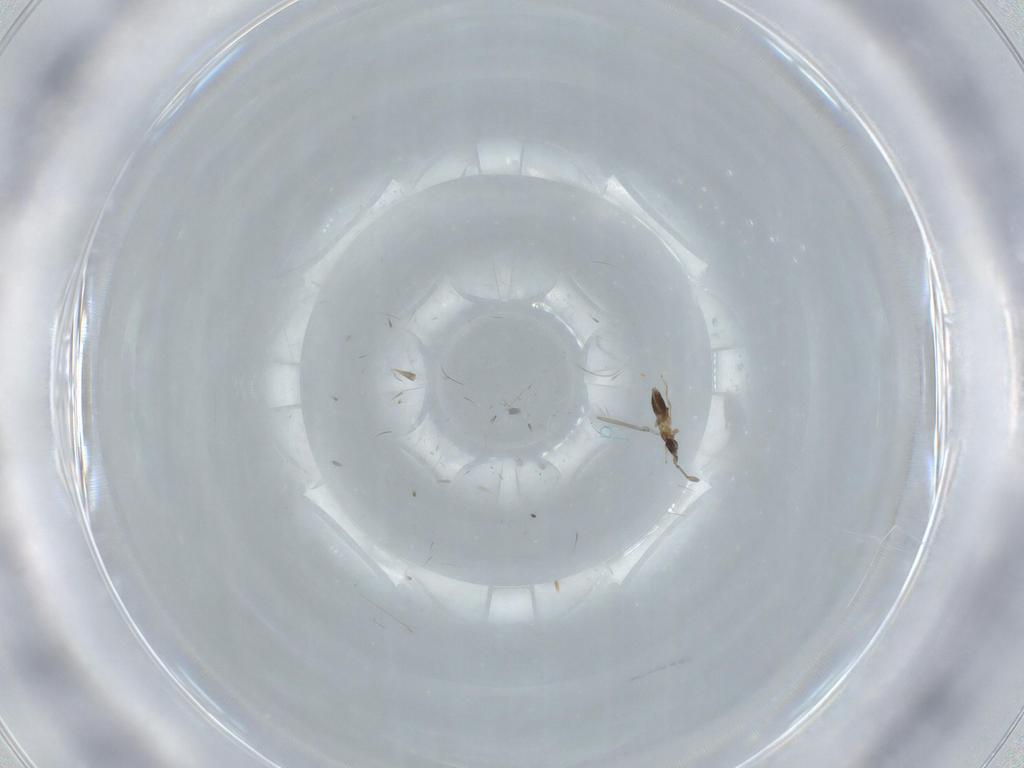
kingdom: Animalia
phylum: Arthropoda
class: Insecta
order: Hymenoptera
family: Mymaridae
